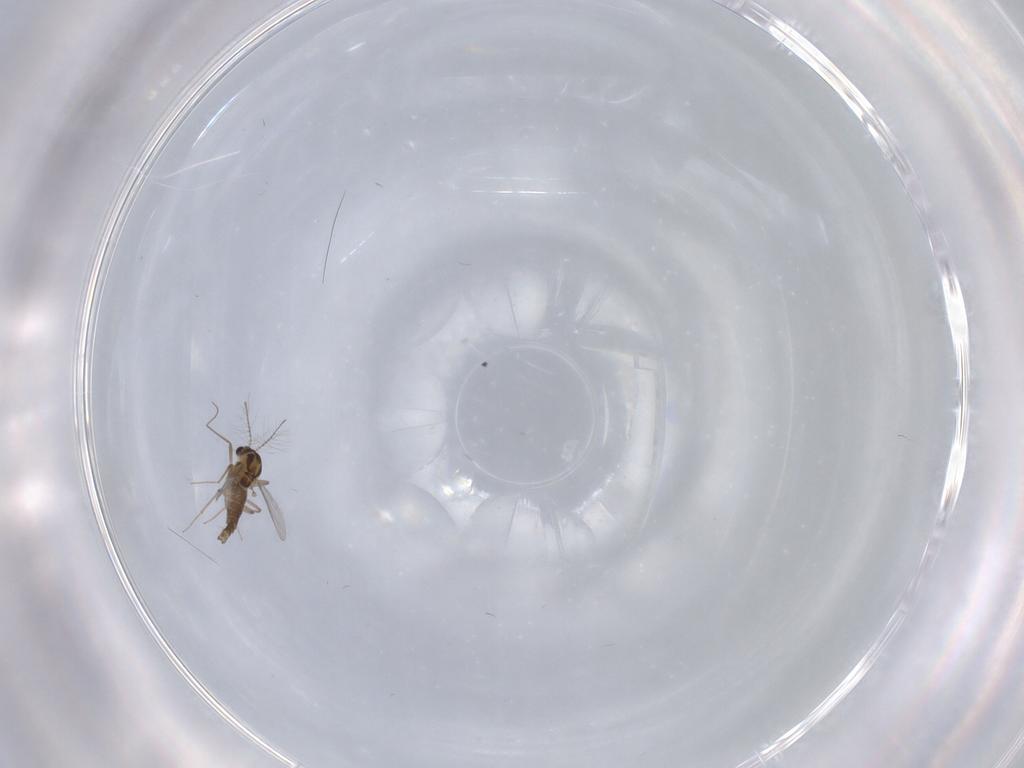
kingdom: Animalia
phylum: Arthropoda
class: Insecta
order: Diptera
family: Chironomidae
